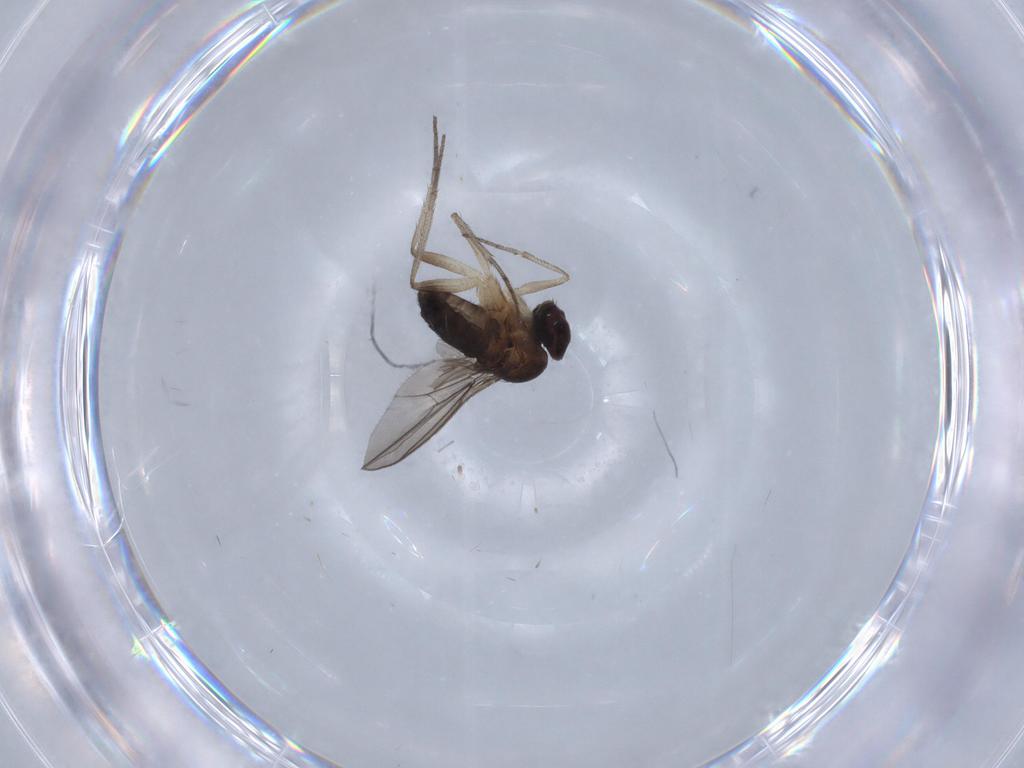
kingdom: Animalia
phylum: Arthropoda
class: Insecta
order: Diptera
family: Dolichopodidae
